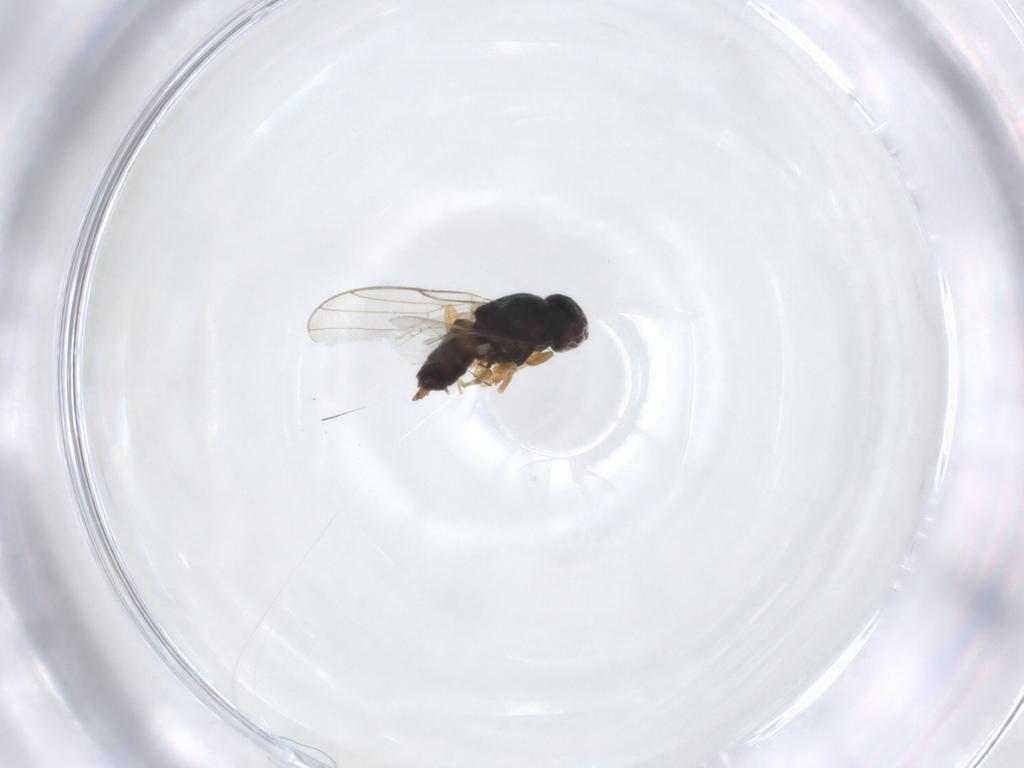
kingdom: Animalia
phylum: Arthropoda
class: Insecta
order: Diptera
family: Chloropidae
